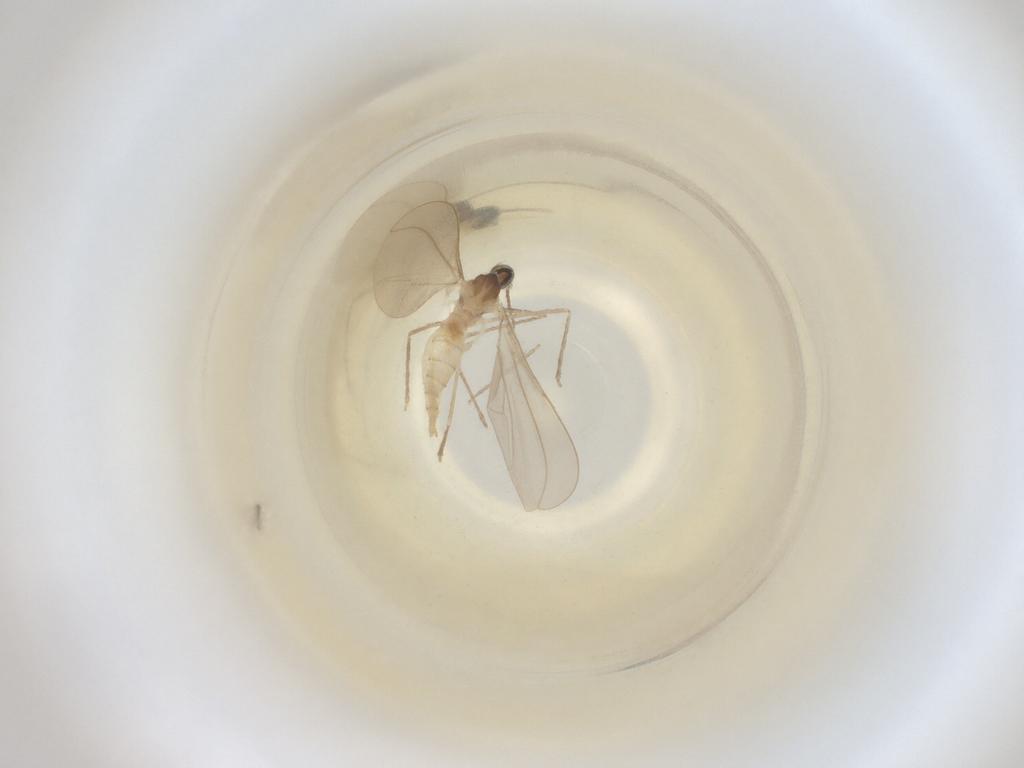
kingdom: Animalia
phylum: Arthropoda
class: Insecta
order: Diptera
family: Cecidomyiidae
